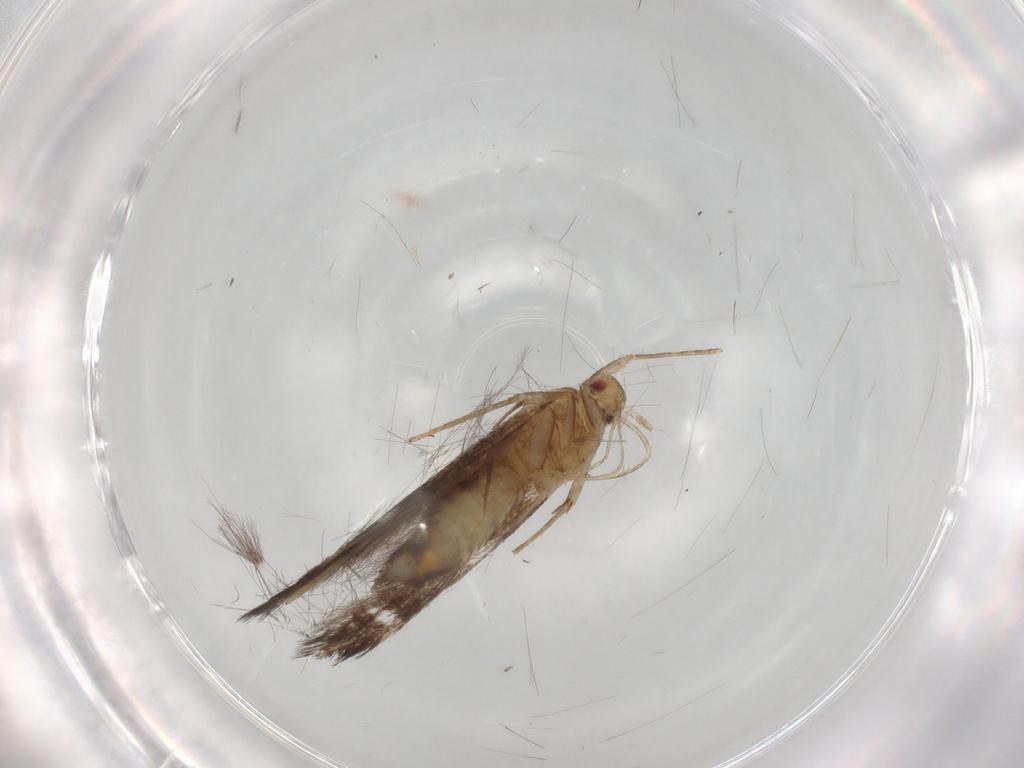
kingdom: Animalia
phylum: Arthropoda
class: Insecta
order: Lepidoptera
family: Cosmopterigidae
